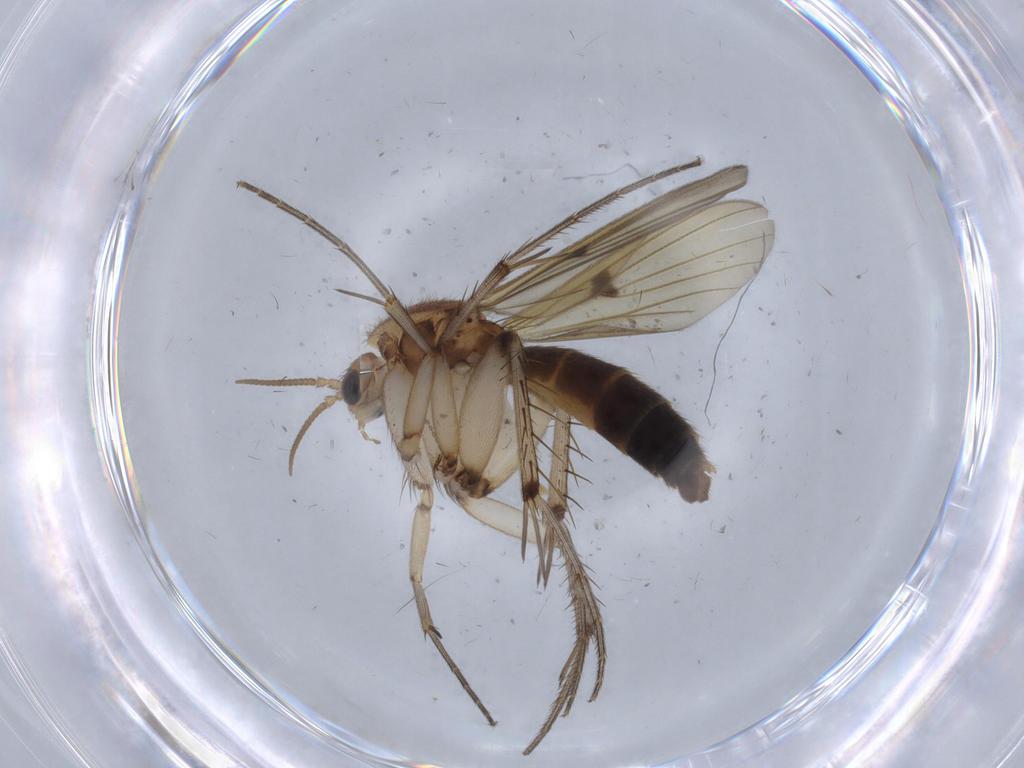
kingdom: Animalia
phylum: Arthropoda
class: Insecta
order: Diptera
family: Mycetophilidae
